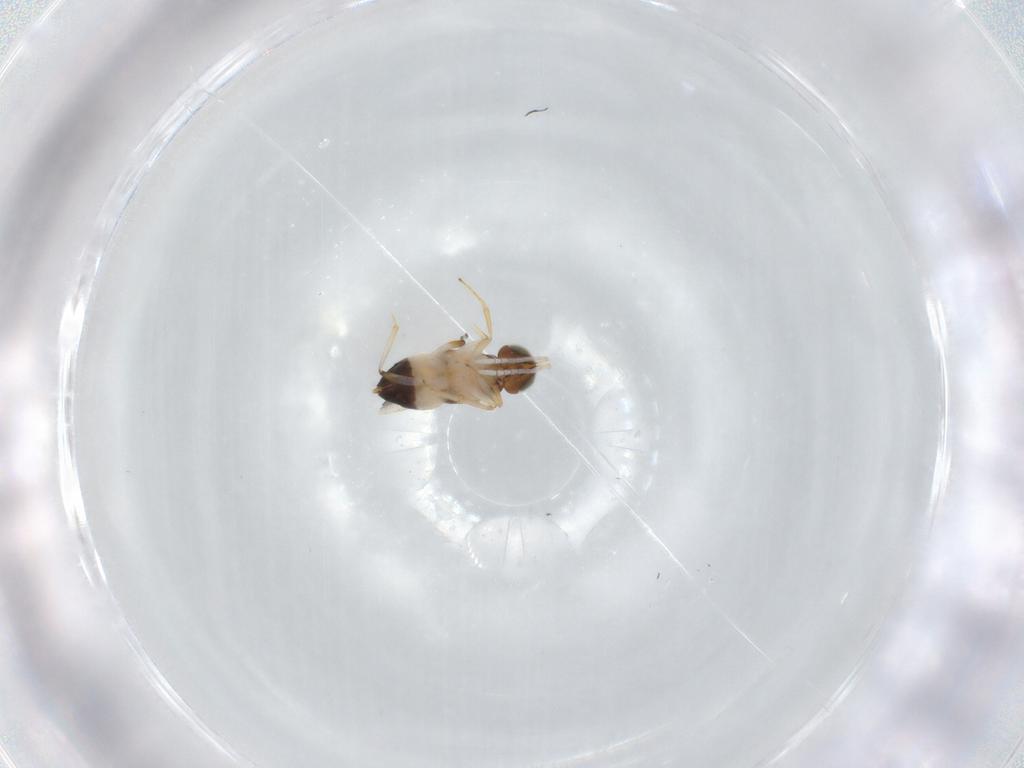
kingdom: Animalia
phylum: Arthropoda
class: Insecta
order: Hymenoptera
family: Encyrtidae
